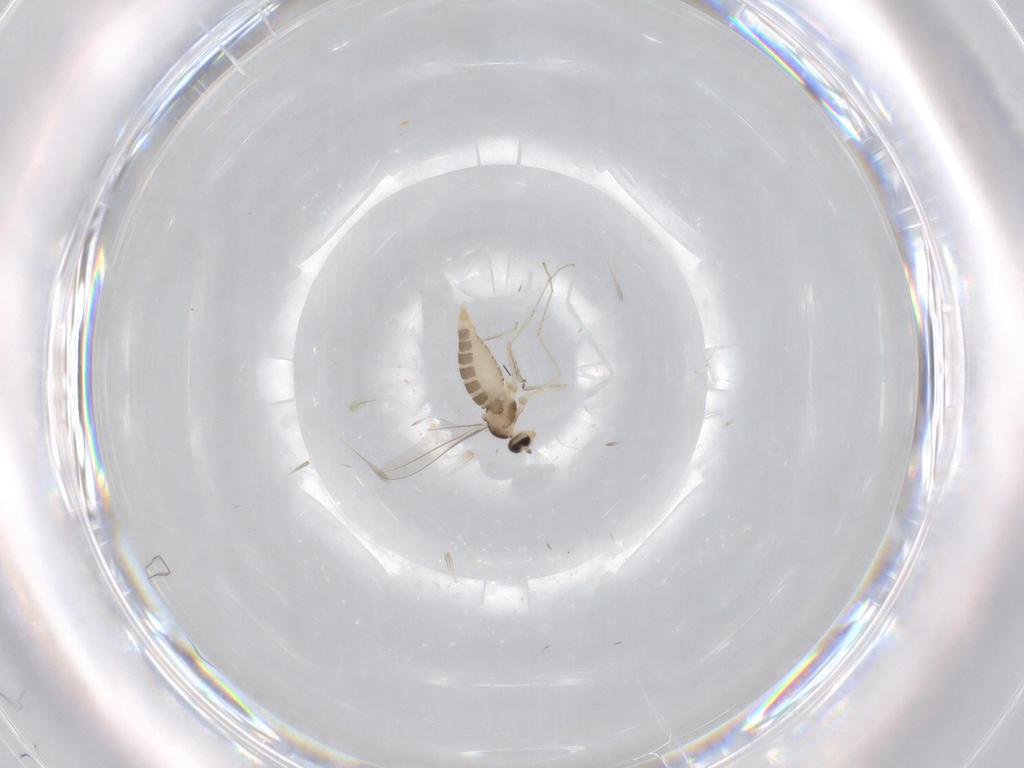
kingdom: Animalia
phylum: Arthropoda
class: Insecta
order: Diptera
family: Cecidomyiidae
